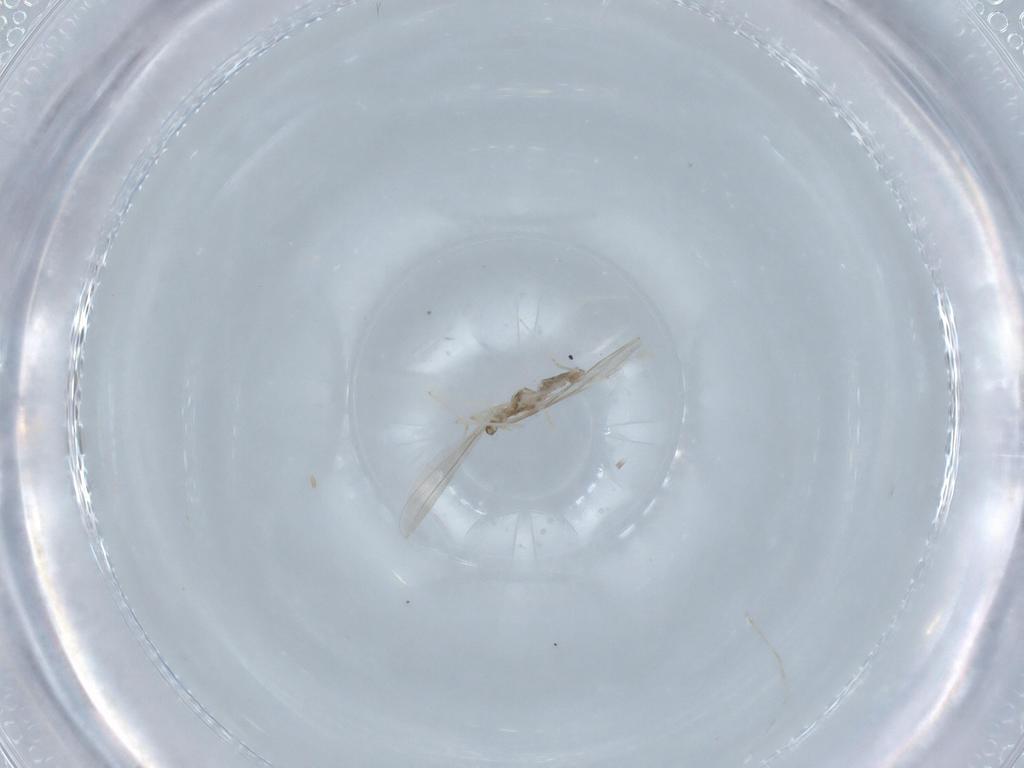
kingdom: Animalia
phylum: Arthropoda
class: Insecta
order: Diptera
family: Cecidomyiidae
